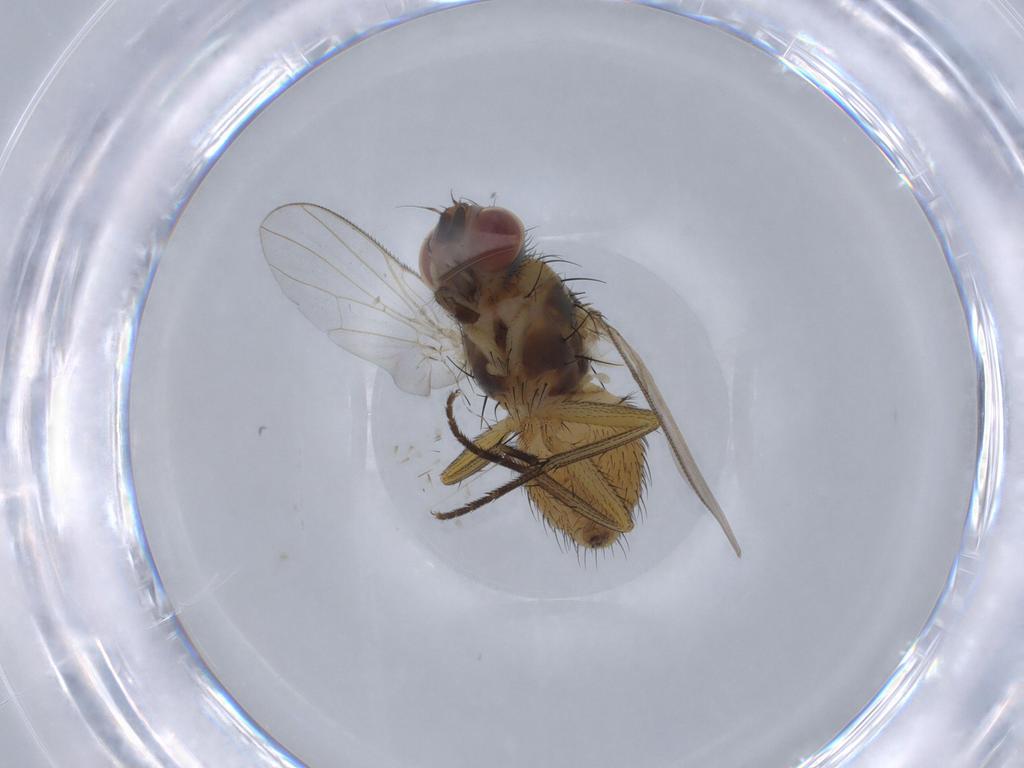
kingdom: Animalia
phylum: Arthropoda
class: Insecta
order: Diptera
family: Muscidae
